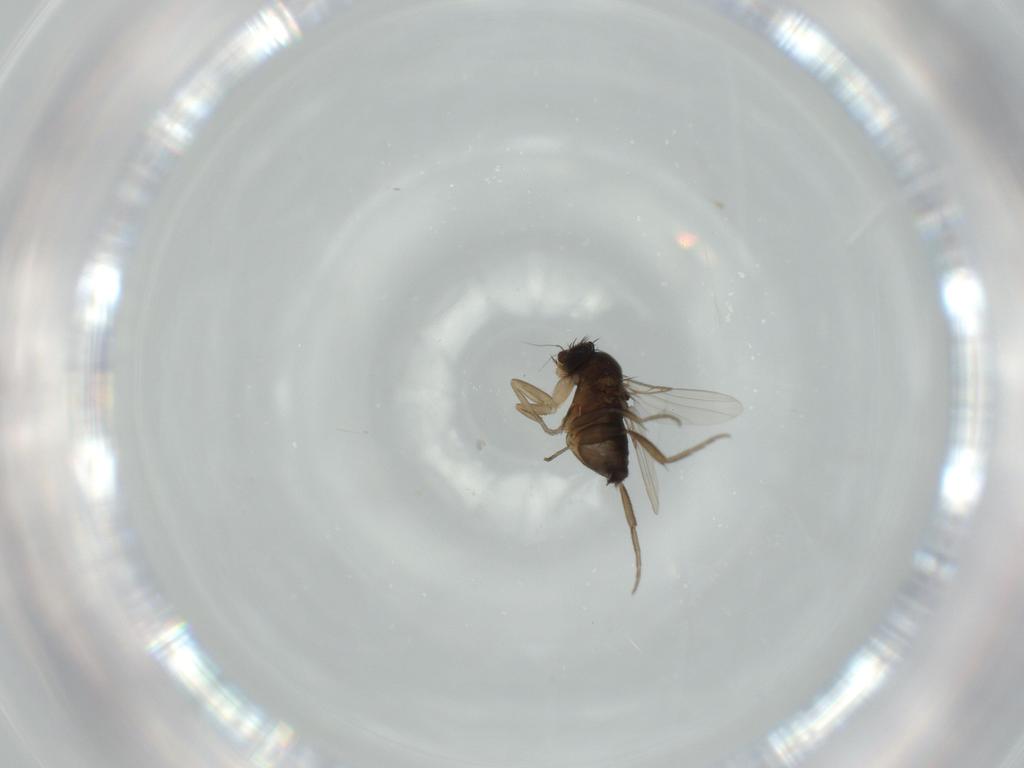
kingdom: Animalia
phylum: Arthropoda
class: Insecta
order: Diptera
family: Phoridae
